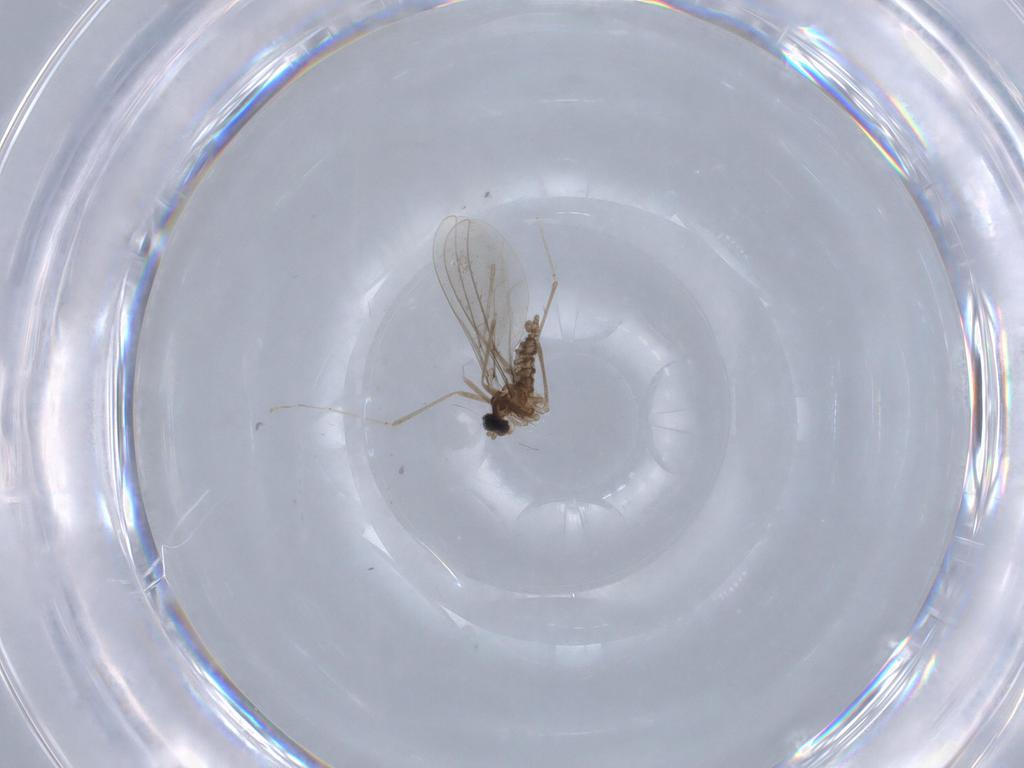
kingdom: Animalia
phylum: Arthropoda
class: Insecta
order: Diptera
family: Cecidomyiidae
